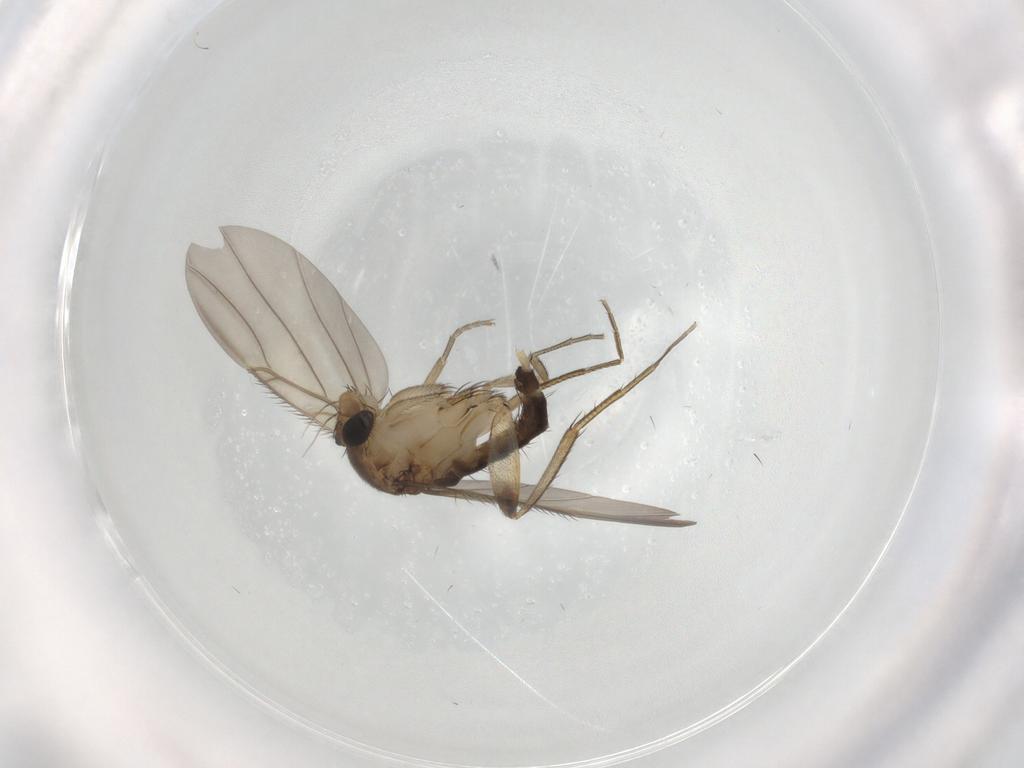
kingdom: Animalia
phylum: Arthropoda
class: Insecta
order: Diptera
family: Phoridae
